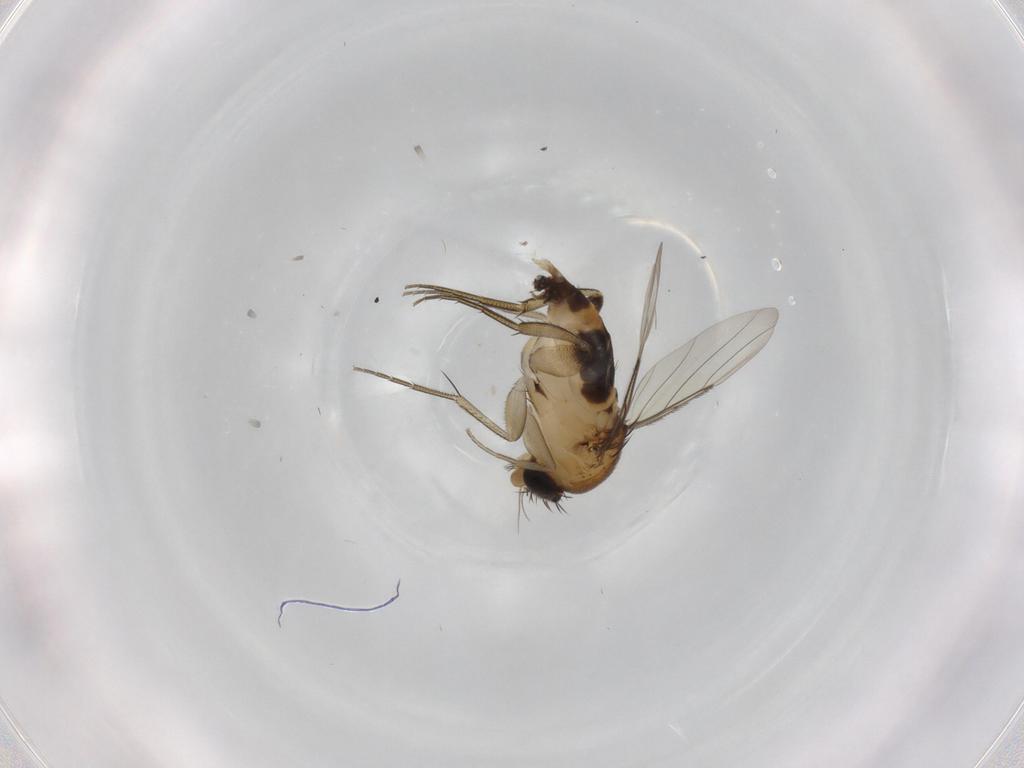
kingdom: Animalia
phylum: Arthropoda
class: Insecta
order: Diptera
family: Phoridae
